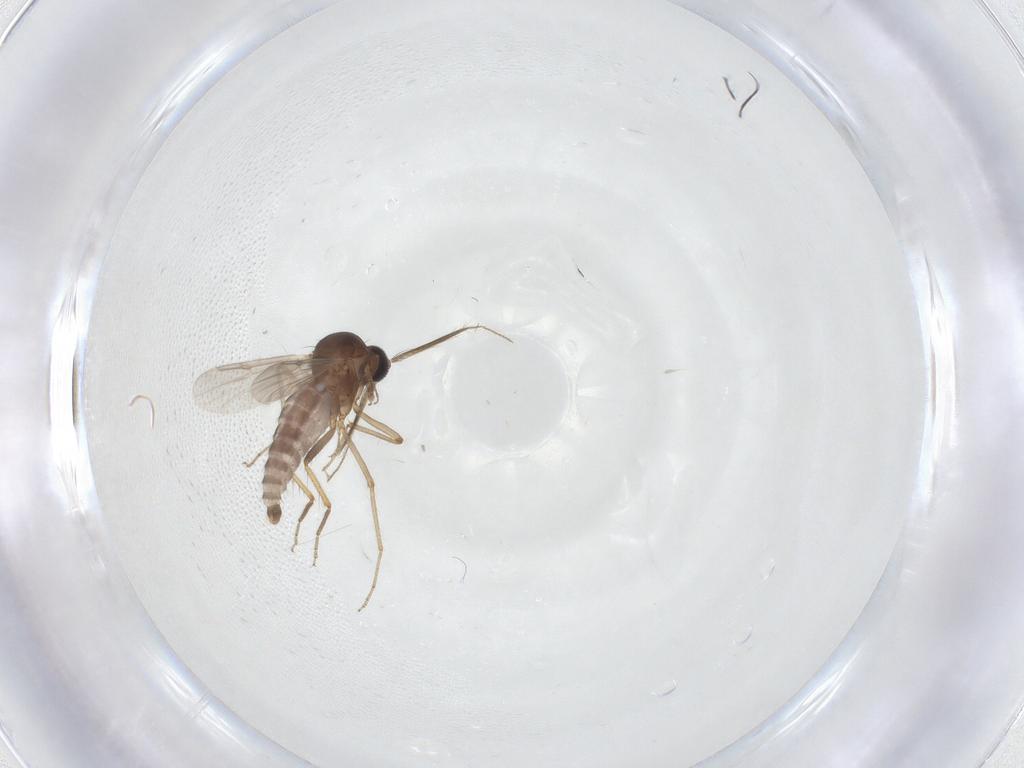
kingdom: Animalia
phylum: Arthropoda
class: Insecta
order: Diptera
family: Ceratopogonidae
